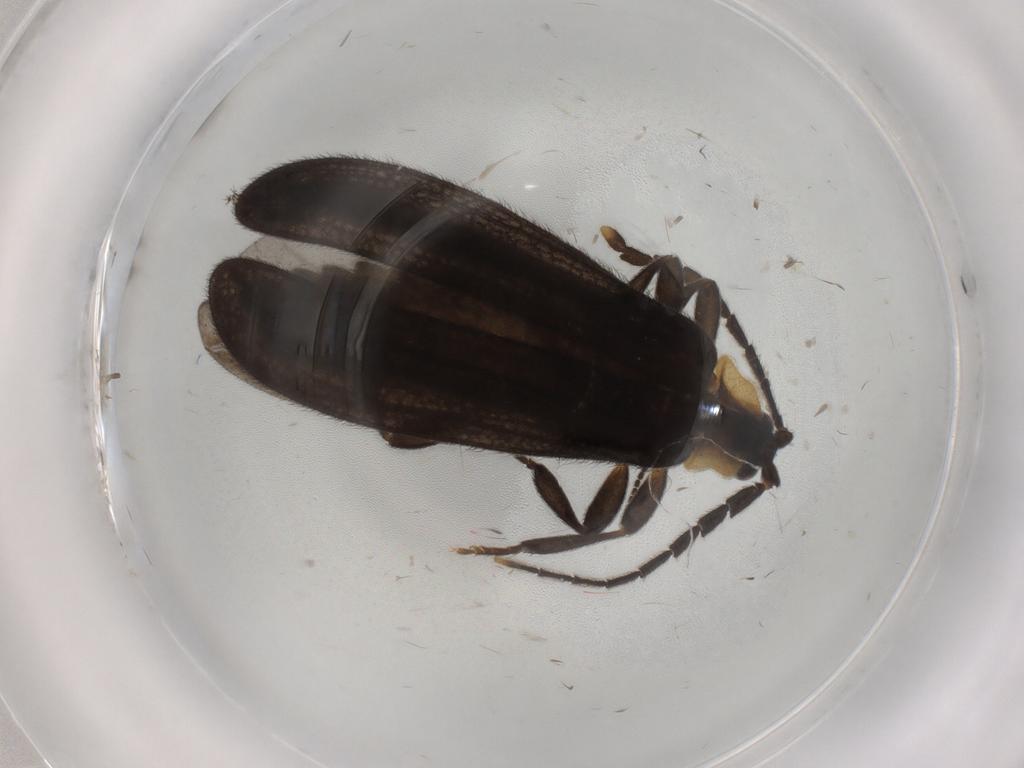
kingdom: Animalia
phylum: Arthropoda
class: Insecta
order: Coleoptera
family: Lycidae
